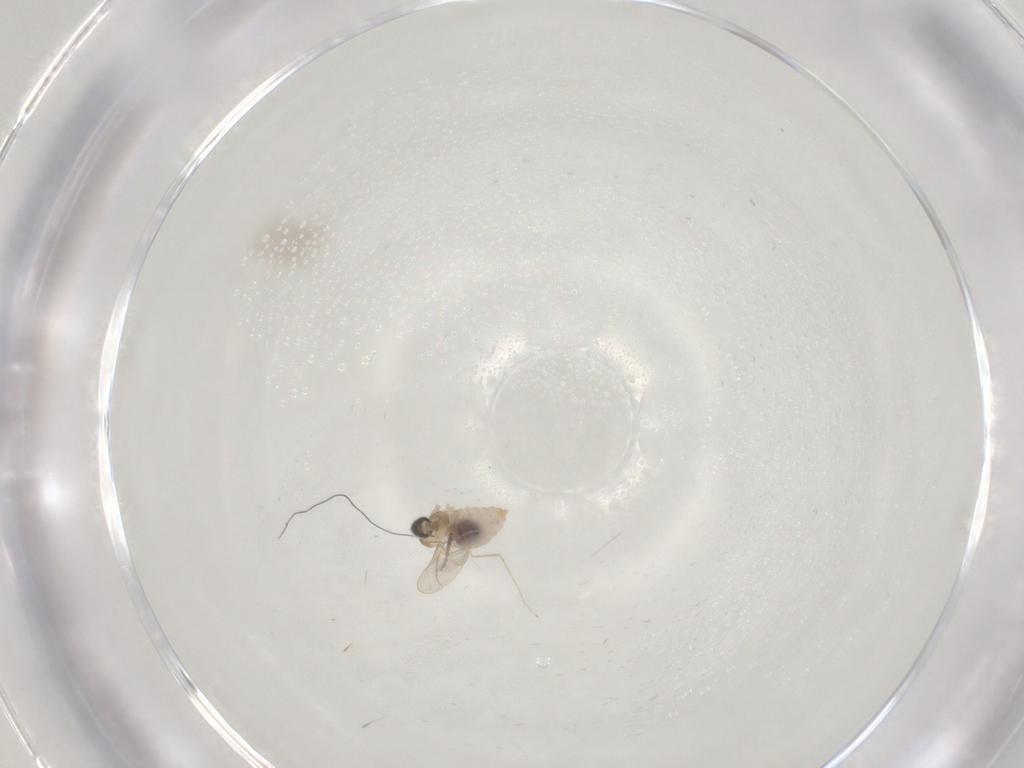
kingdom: Animalia
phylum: Arthropoda
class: Insecta
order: Diptera
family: Phoridae
